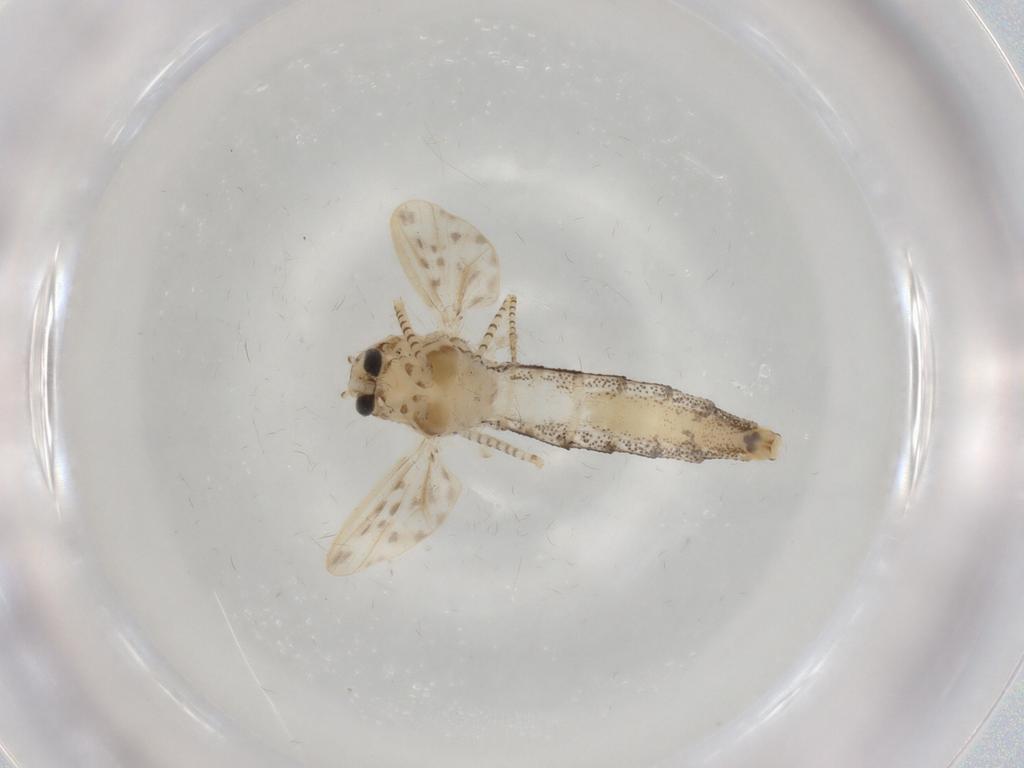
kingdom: Animalia
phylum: Arthropoda
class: Insecta
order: Diptera
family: Chaoboridae
